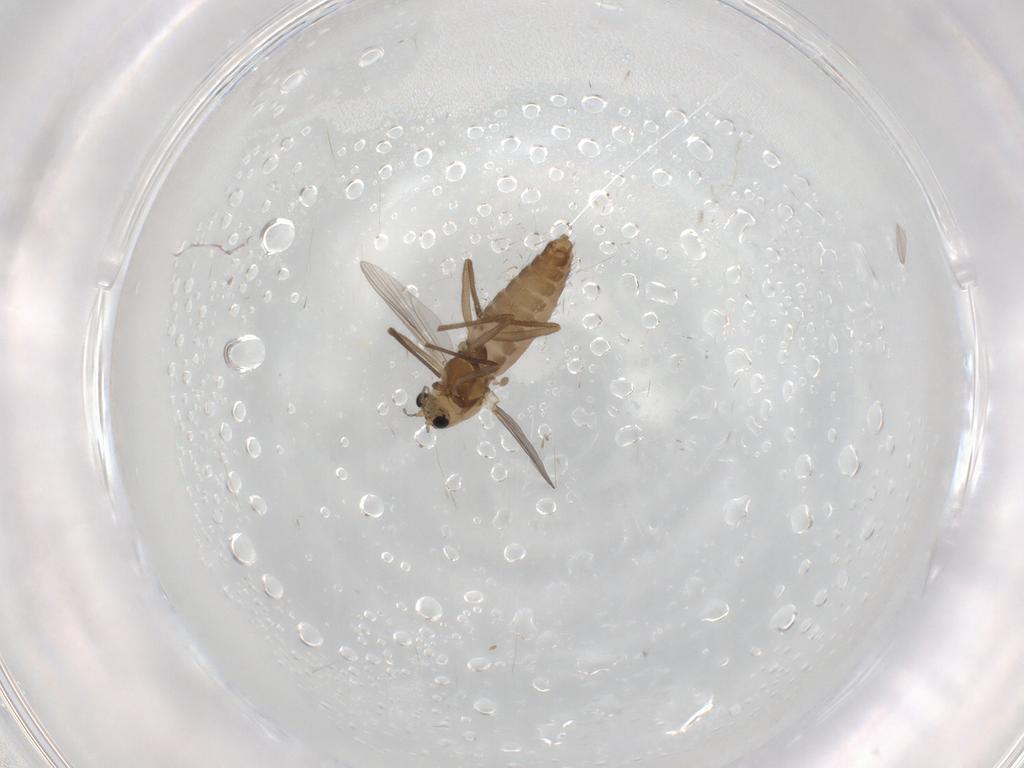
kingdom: Animalia
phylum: Arthropoda
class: Insecta
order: Diptera
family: Chironomidae
